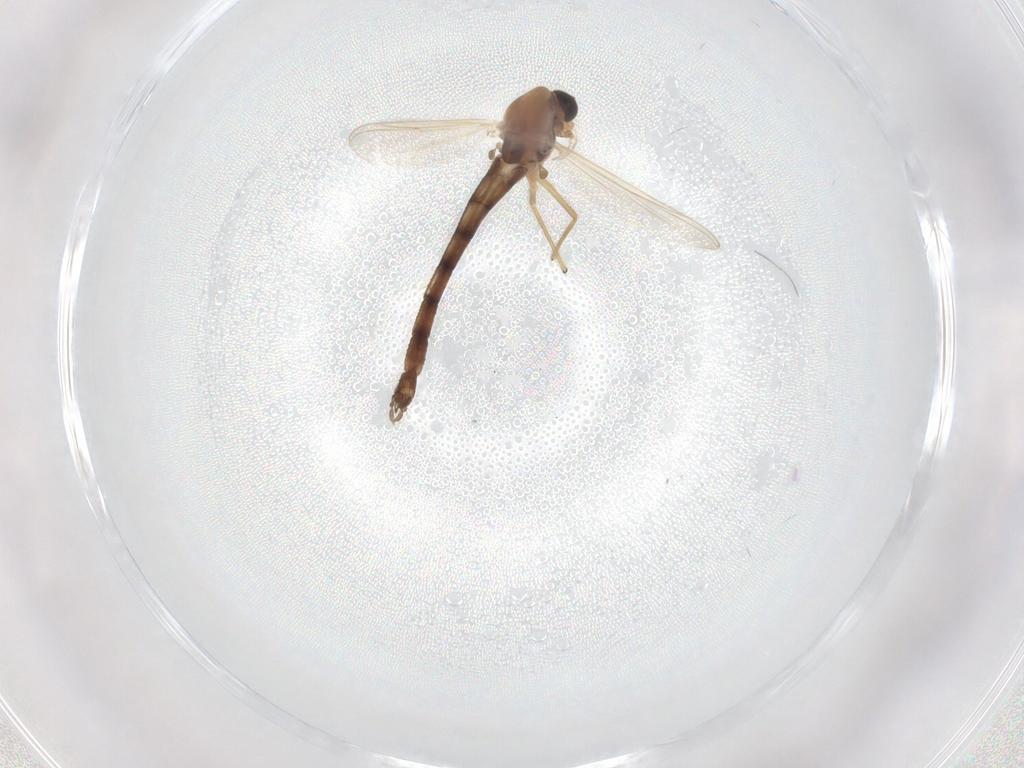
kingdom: Animalia
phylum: Arthropoda
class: Insecta
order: Diptera
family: Chironomidae
